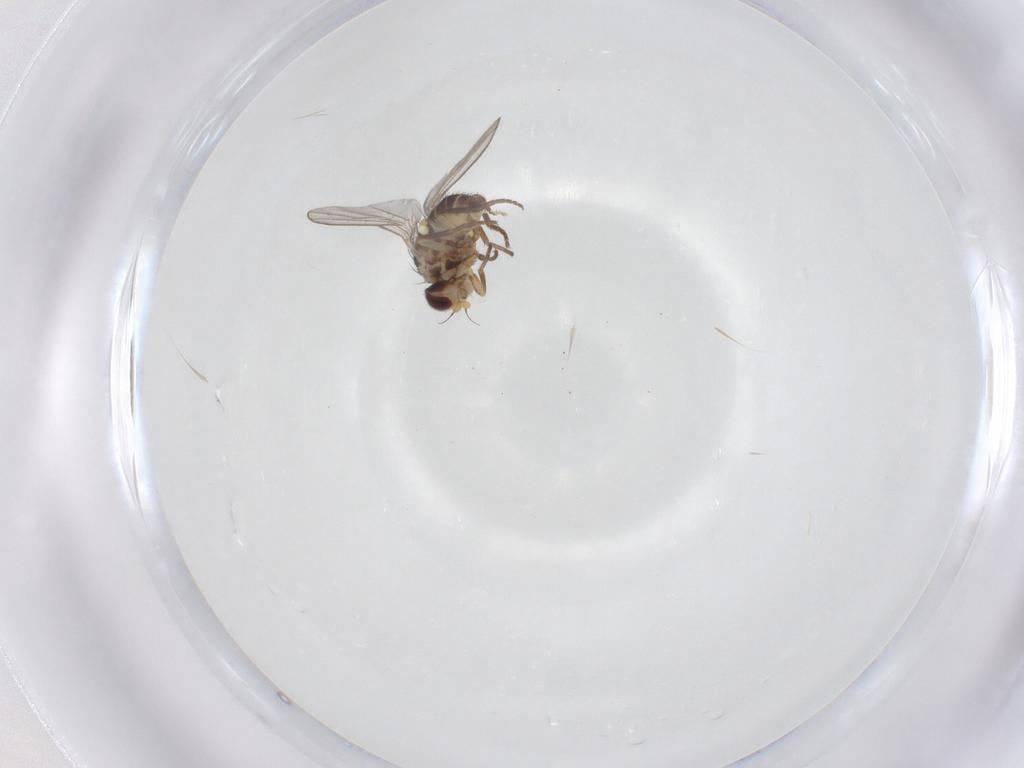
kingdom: Animalia
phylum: Arthropoda
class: Insecta
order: Diptera
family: Agromyzidae
